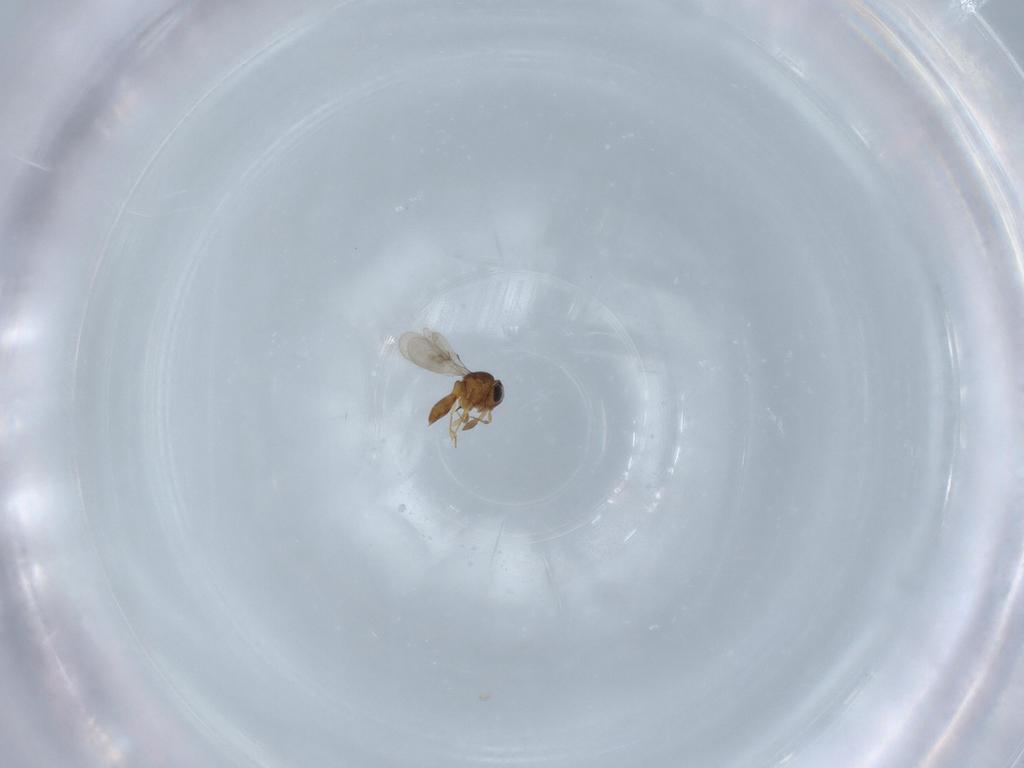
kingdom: Animalia
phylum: Arthropoda
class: Insecta
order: Hymenoptera
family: Scelionidae
